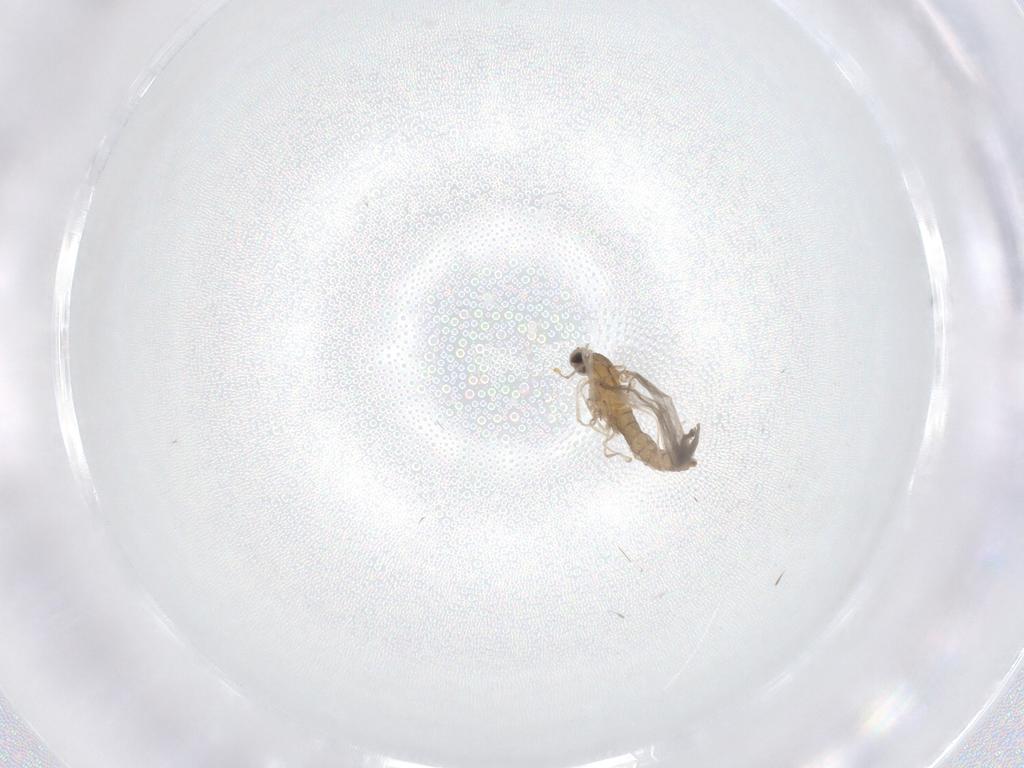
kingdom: Animalia
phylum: Arthropoda
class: Insecta
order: Diptera
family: Cecidomyiidae
